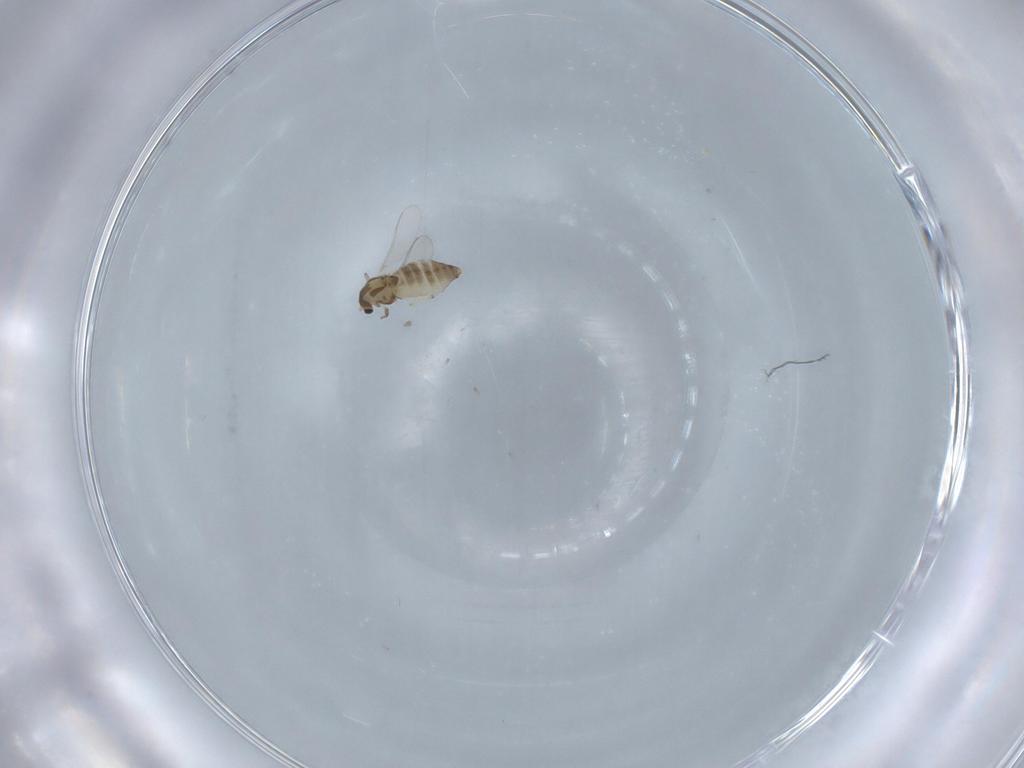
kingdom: Animalia
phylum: Arthropoda
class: Insecta
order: Diptera
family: Chironomidae
